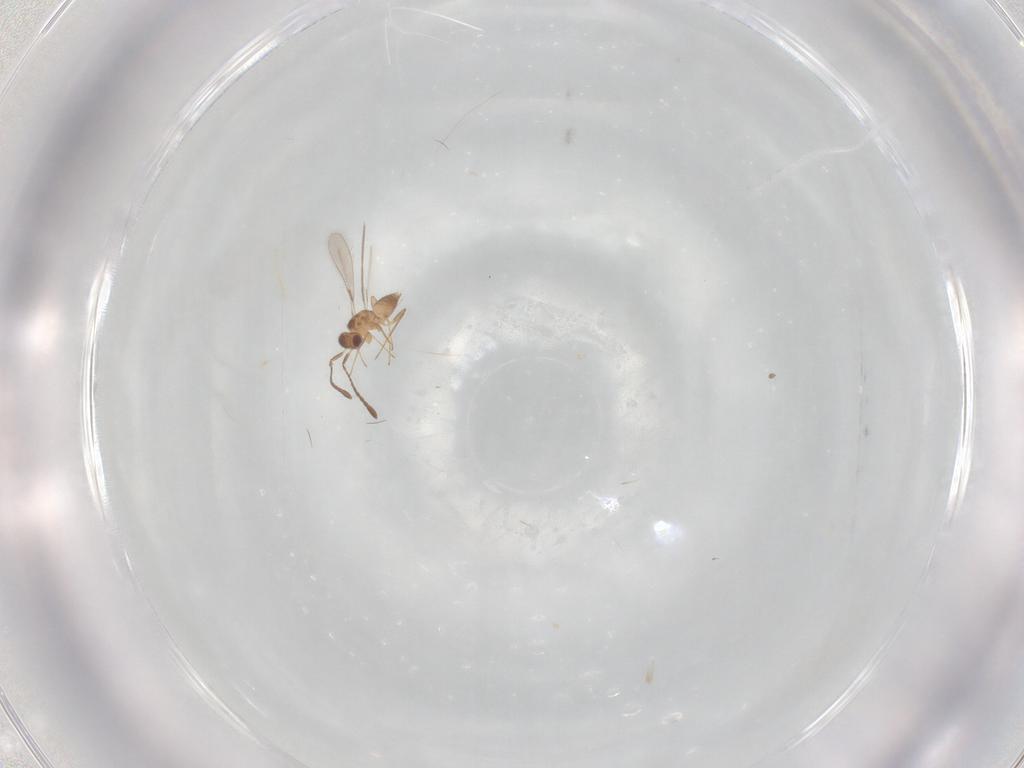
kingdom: Animalia
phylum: Arthropoda
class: Insecta
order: Hymenoptera
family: Mymaridae
